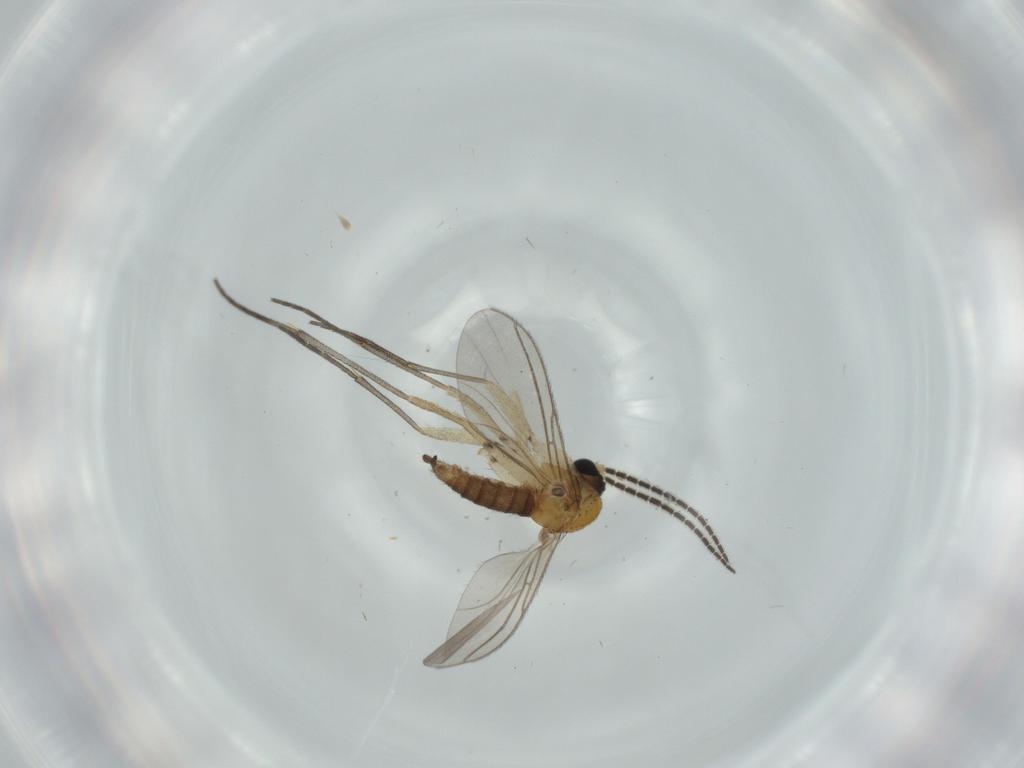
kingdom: Animalia
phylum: Arthropoda
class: Insecta
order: Diptera
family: Sciaridae
